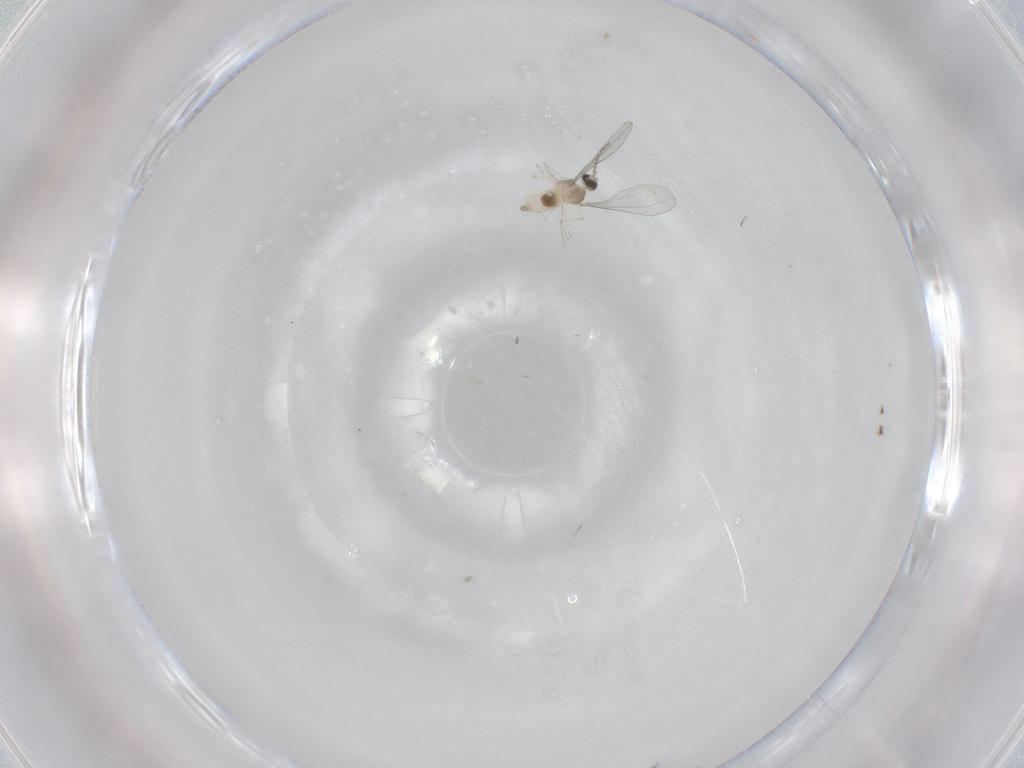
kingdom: Animalia
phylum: Arthropoda
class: Insecta
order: Diptera
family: Cecidomyiidae
